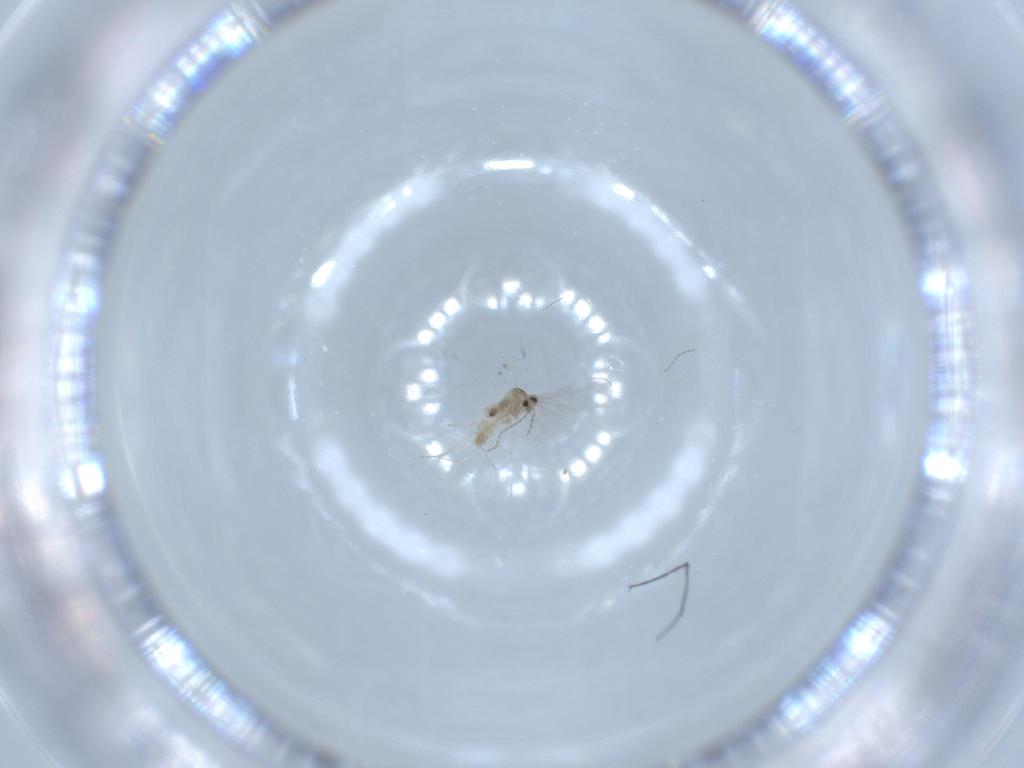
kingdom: Animalia
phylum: Arthropoda
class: Insecta
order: Diptera
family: Cecidomyiidae
